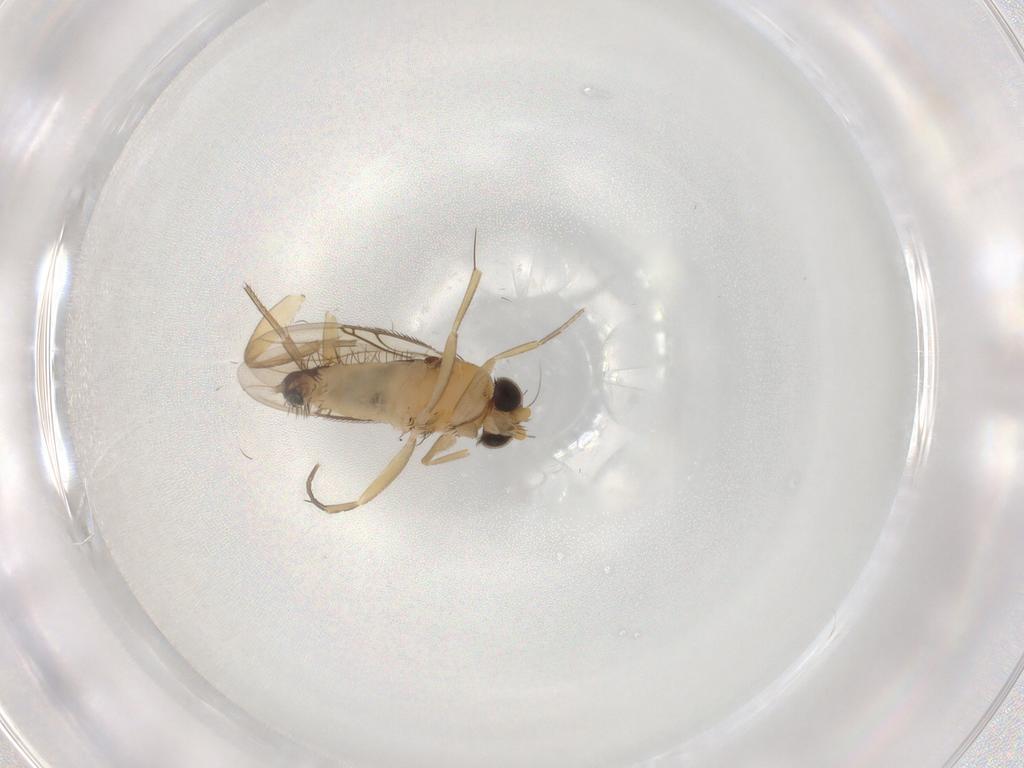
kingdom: Animalia
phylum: Arthropoda
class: Insecta
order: Diptera
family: Phoridae
